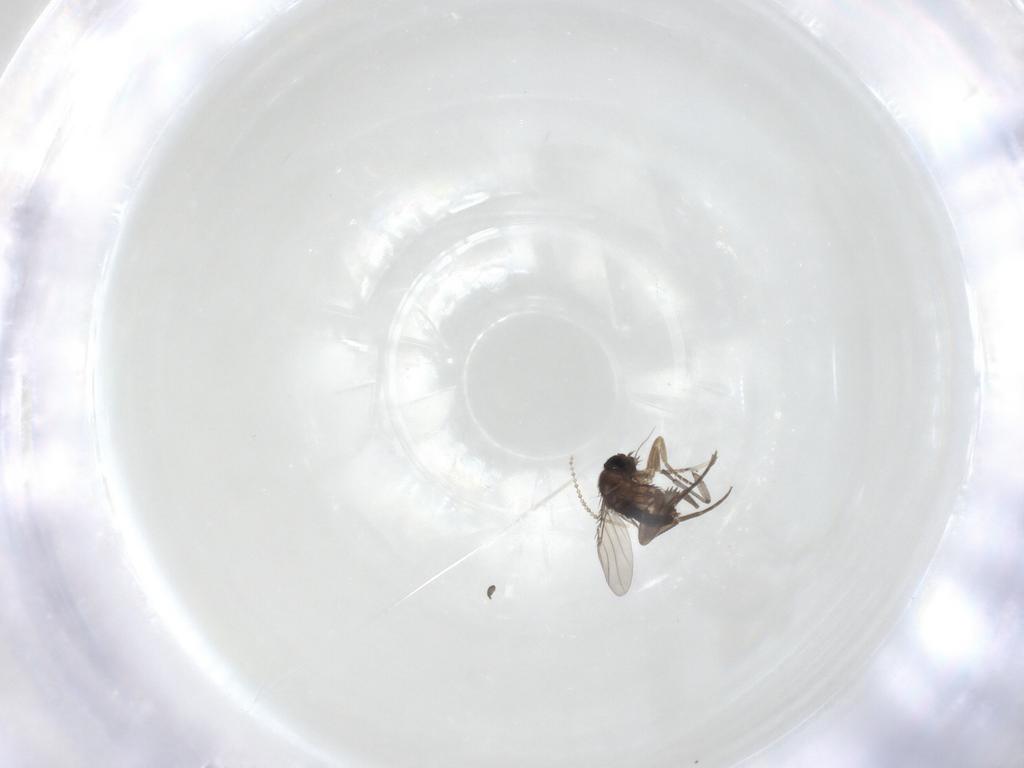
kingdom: Animalia
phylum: Arthropoda
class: Insecta
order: Diptera
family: Phoridae
